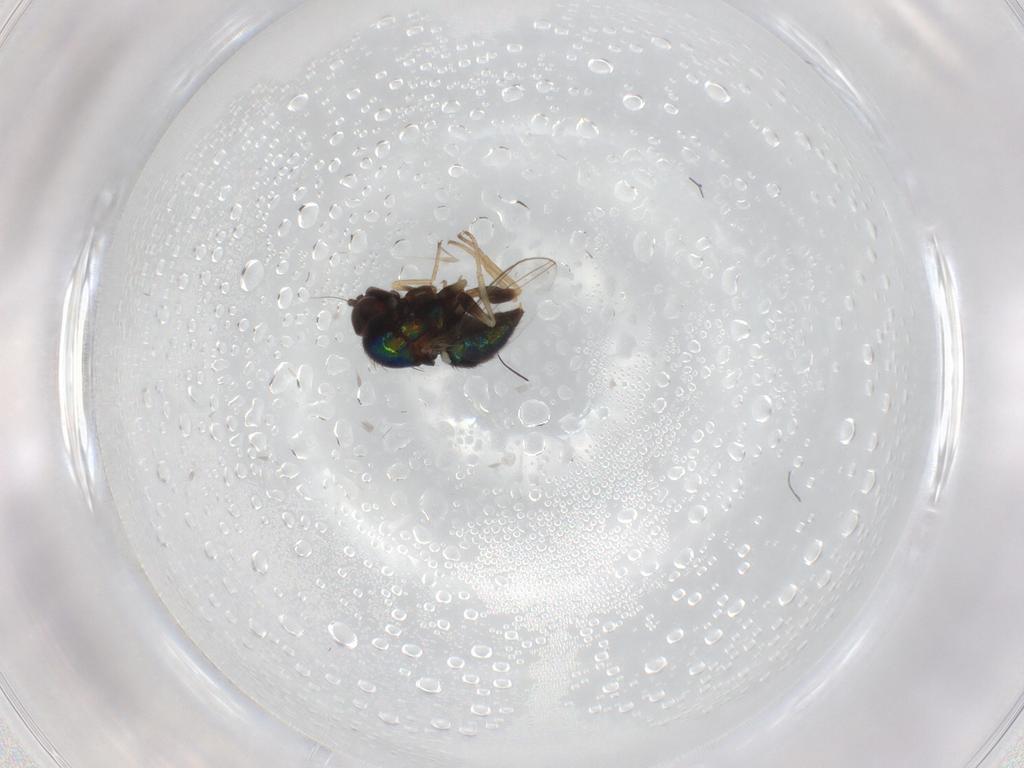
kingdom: Animalia
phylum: Arthropoda
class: Insecta
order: Diptera
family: Dolichopodidae
